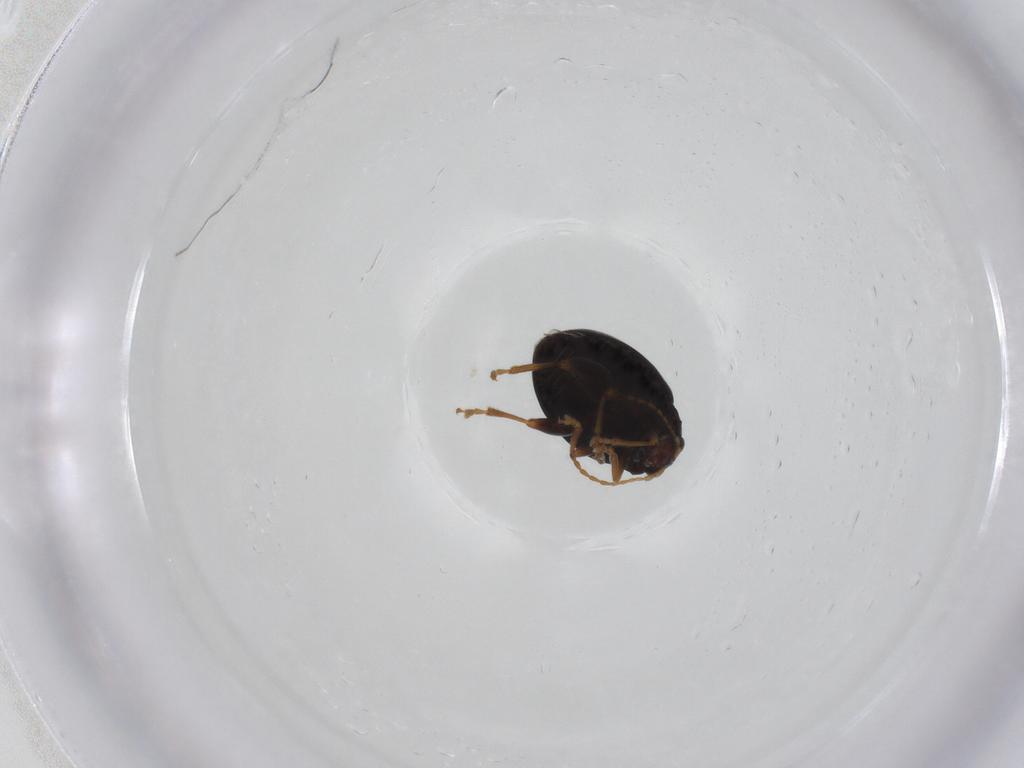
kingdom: Animalia
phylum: Arthropoda
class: Insecta
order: Coleoptera
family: Chrysomelidae
